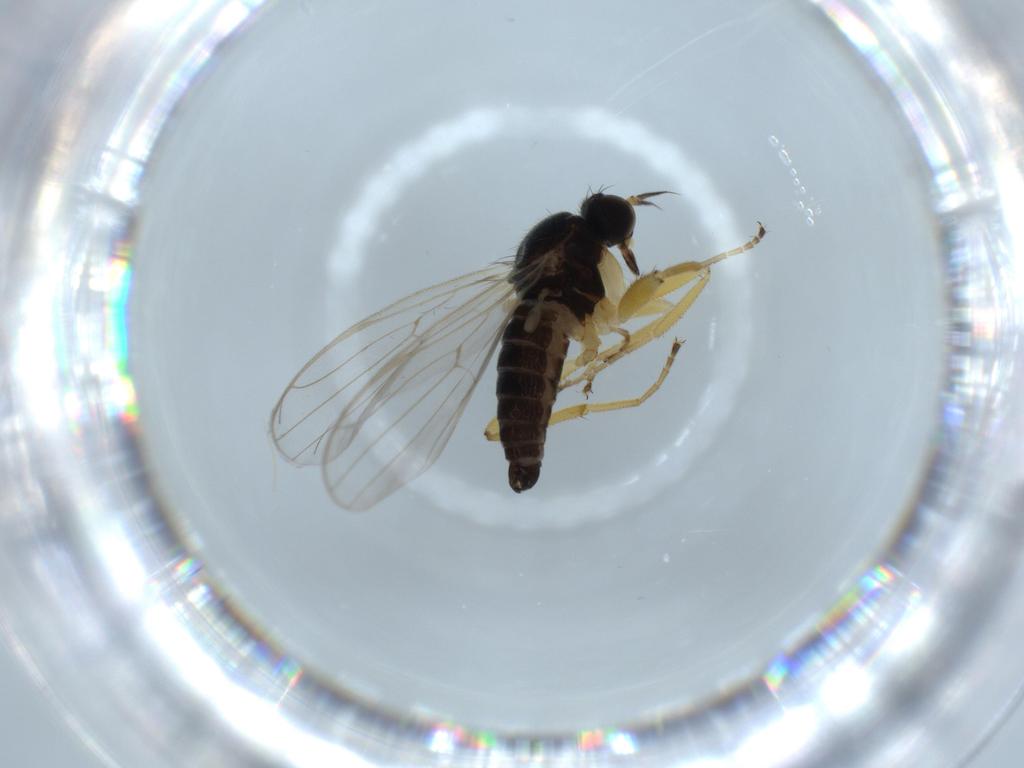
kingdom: Animalia
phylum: Arthropoda
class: Insecta
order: Diptera
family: Hybotidae
